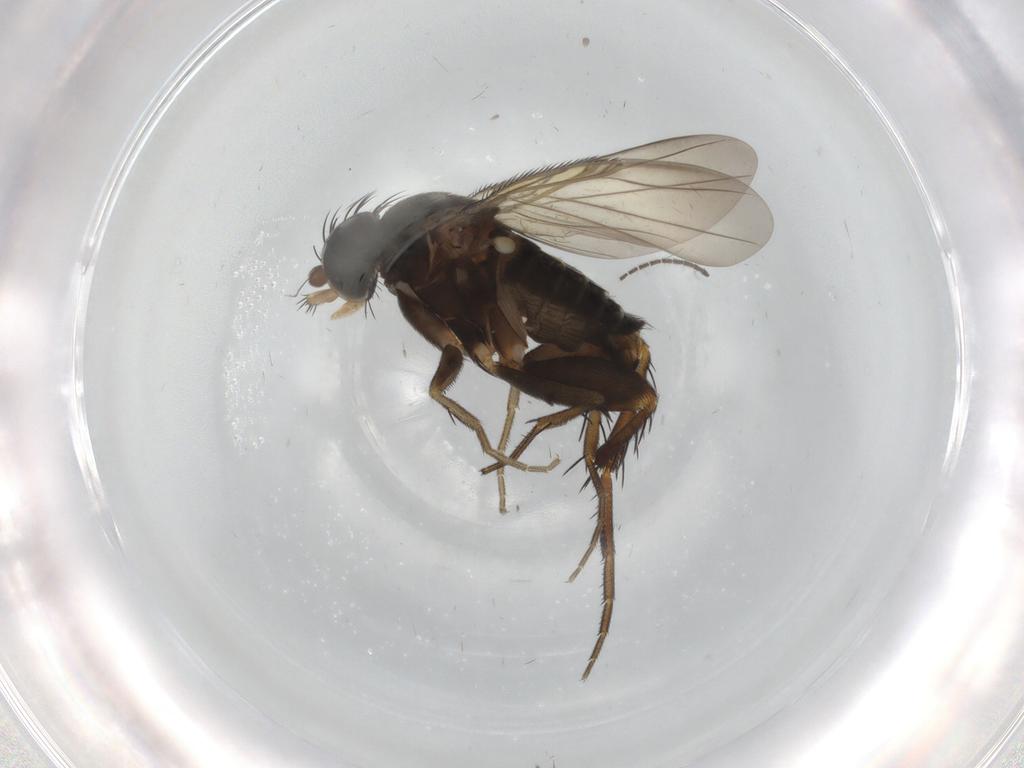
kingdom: Animalia
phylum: Arthropoda
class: Insecta
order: Diptera
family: Phoridae
